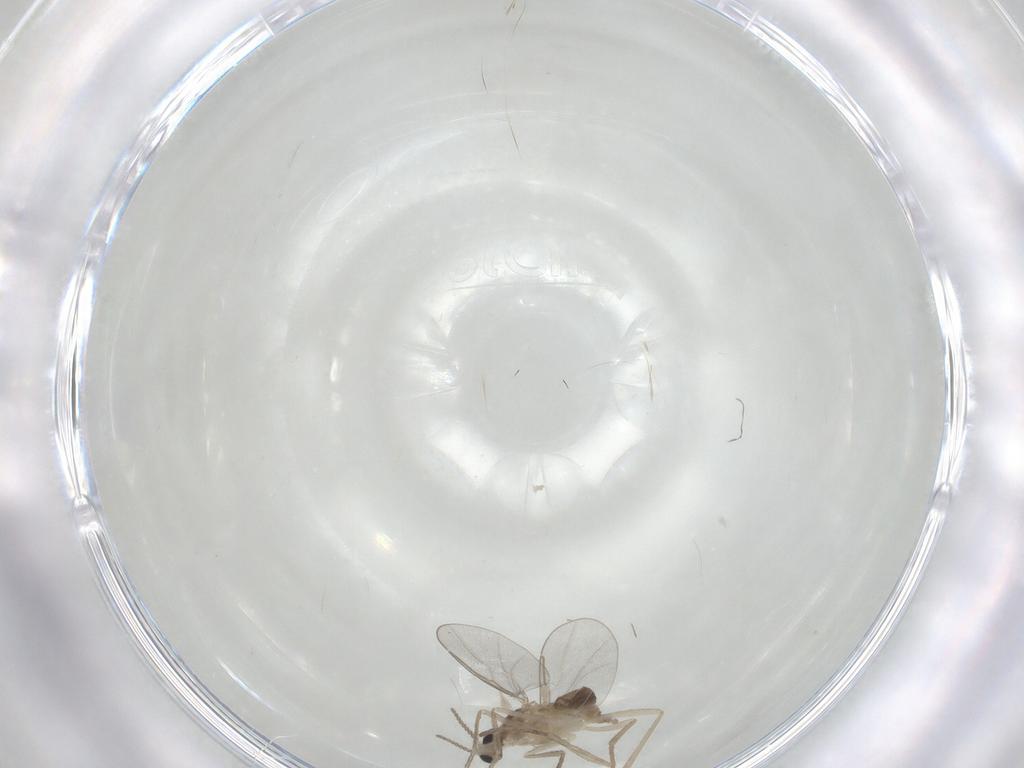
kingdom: Animalia
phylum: Arthropoda
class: Insecta
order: Diptera
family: Cecidomyiidae
